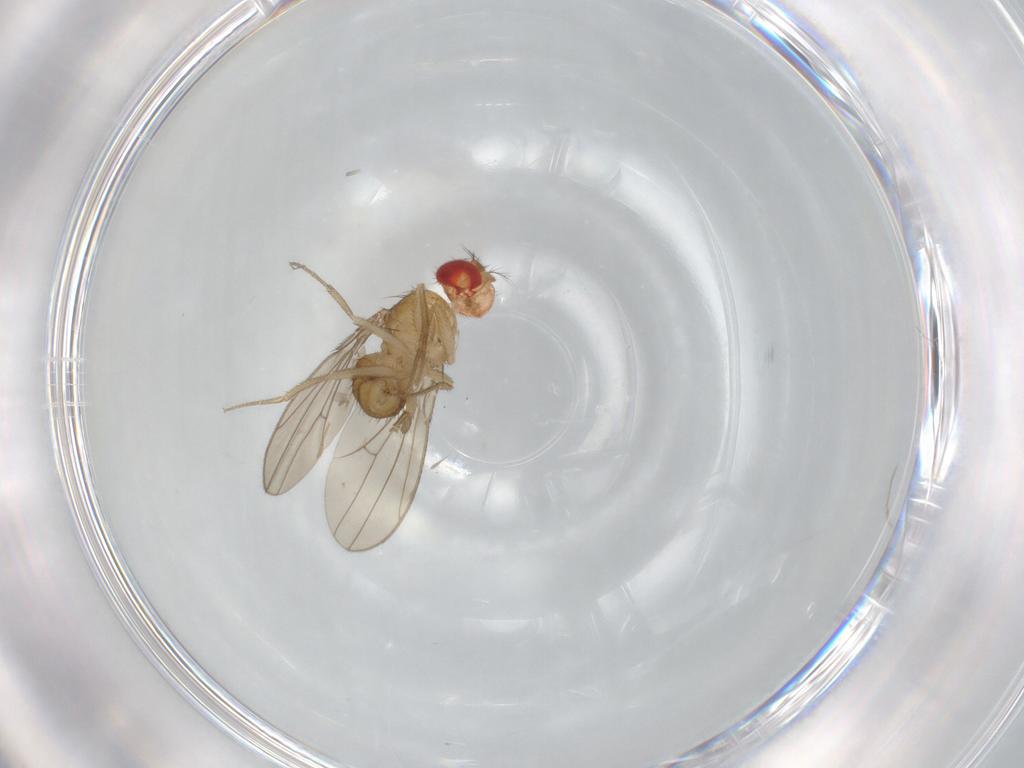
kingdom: Animalia
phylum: Arthropoda
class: Insecta
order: Diptera
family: Drosophilidae
